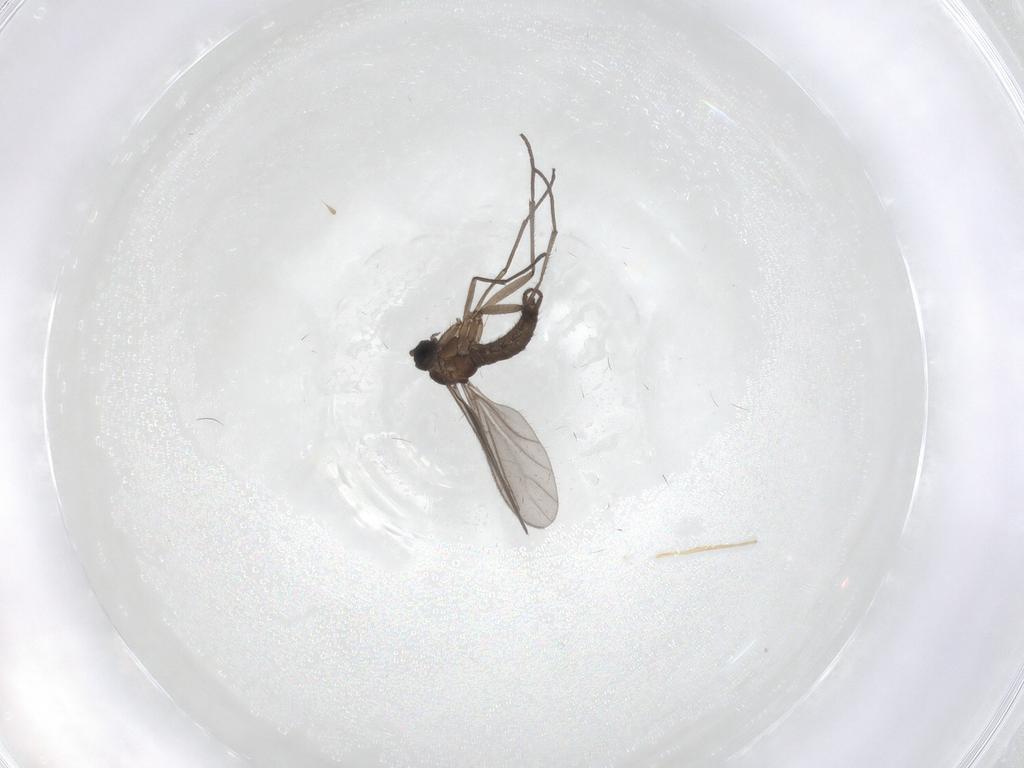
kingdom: Animalia
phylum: Arthropoda
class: Insecta
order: Diptera
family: Sciaridae
